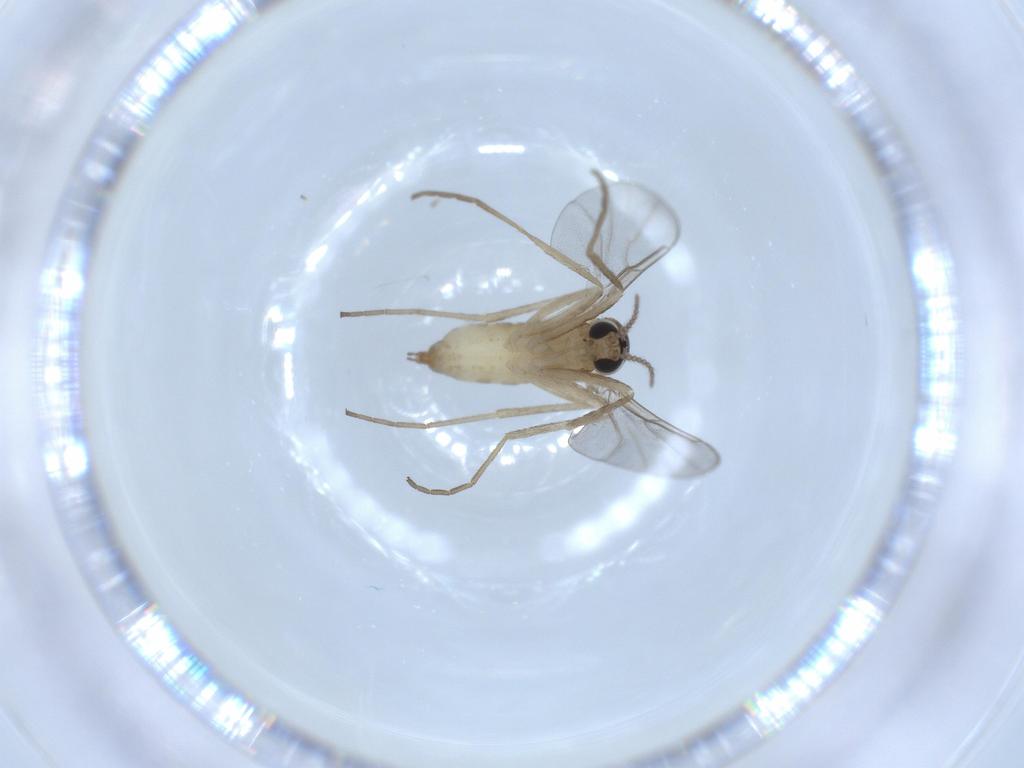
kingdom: Animalia
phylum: Arthropoda
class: Insecta
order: Diptera
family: Cecidomyiidae
